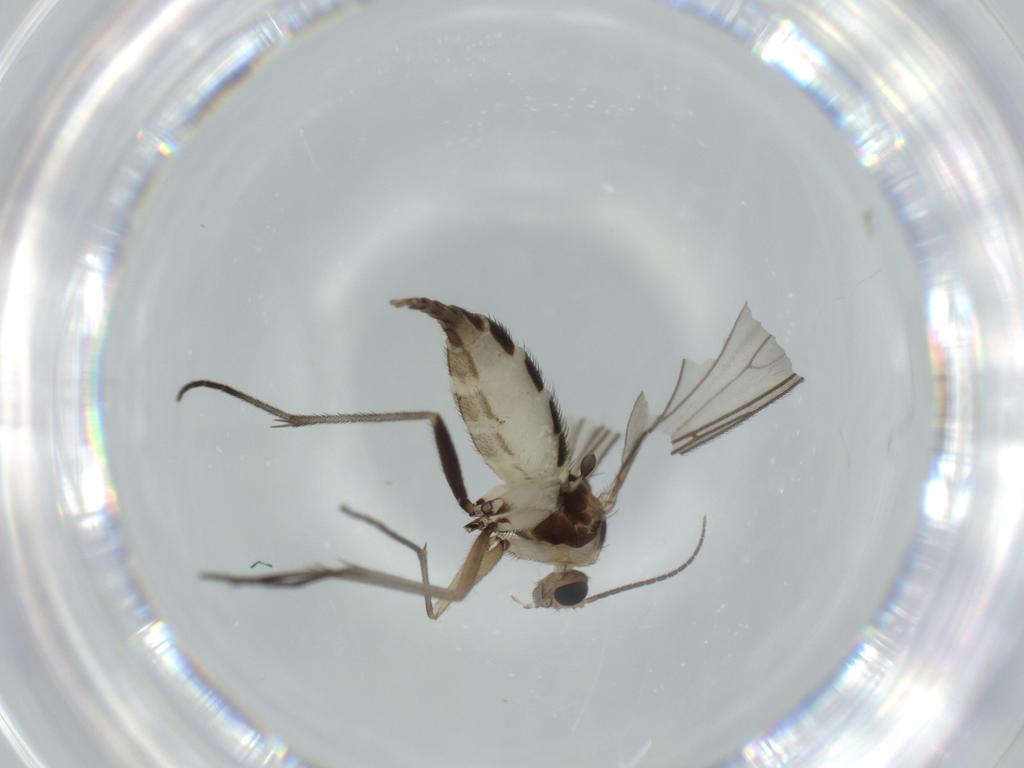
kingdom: Animalia
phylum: Arthropoda
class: Insecta
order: Diptera
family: Sciaridae
